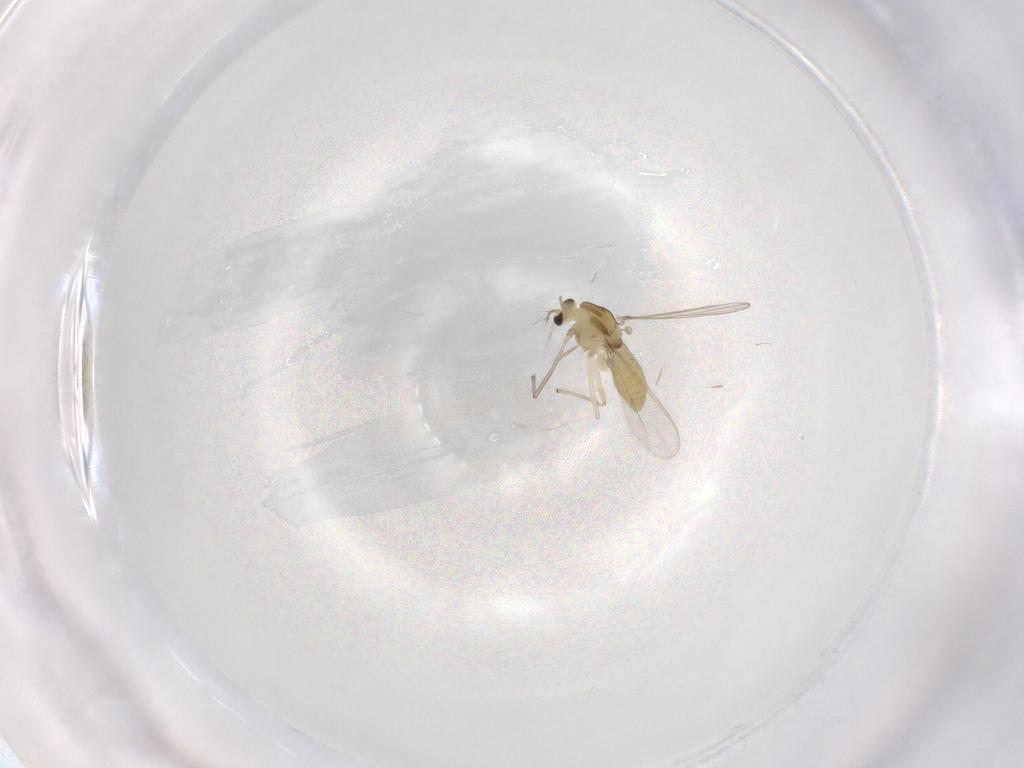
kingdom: Animalia
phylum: Arthropoda
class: Insecta
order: Diptera
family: Chironomidae
